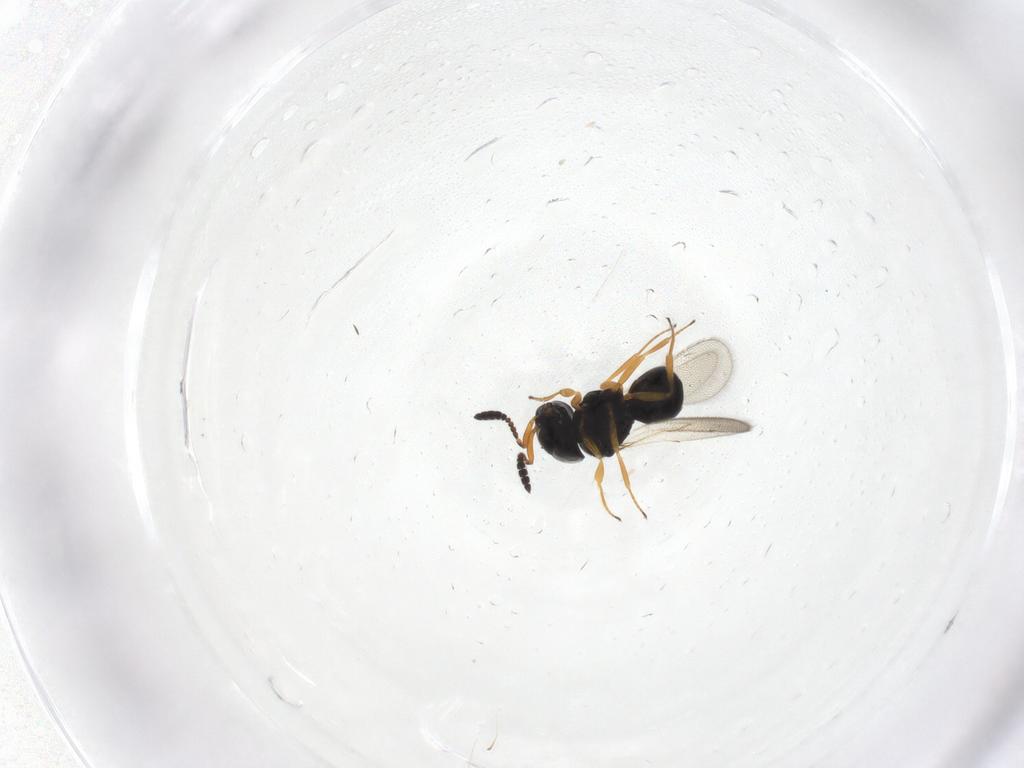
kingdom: Animalia
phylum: Arthropoda
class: Insecta
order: Hymenoptera
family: Scelionidae
